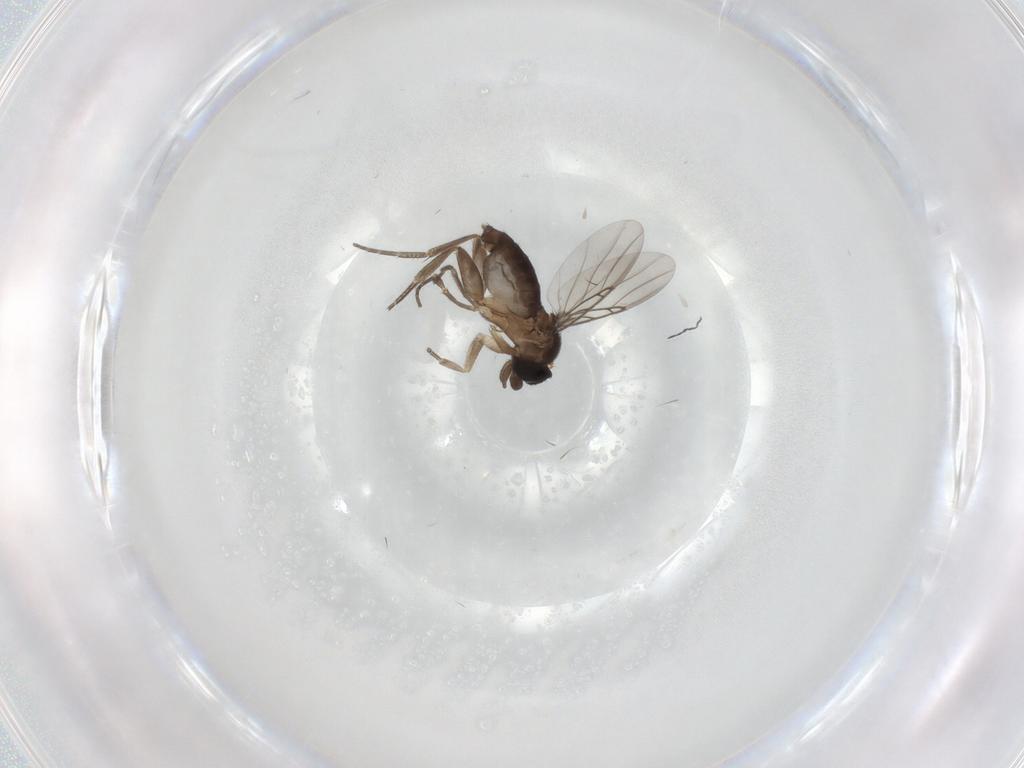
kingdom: Animalia
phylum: Arthropoda
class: Insecta
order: Diptera
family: Phoridae
